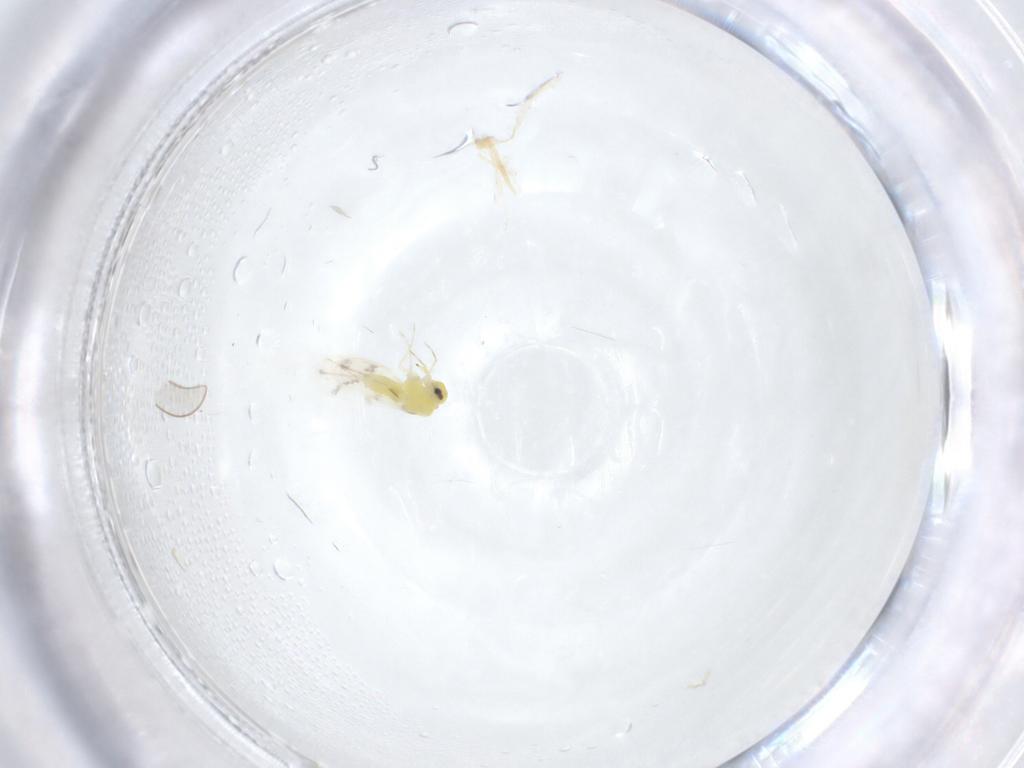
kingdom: Animalia
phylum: Arthropoda
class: Insecta
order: Hemiptera
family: Aleyrodidae
